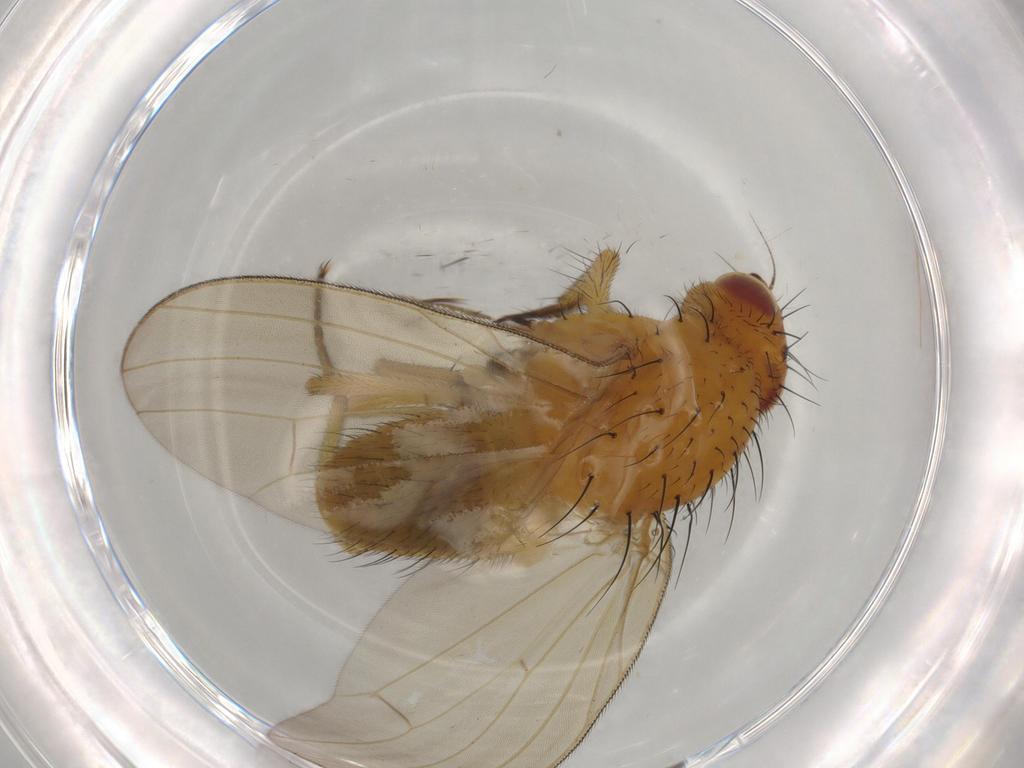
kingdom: Animalia
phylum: Arthropoda
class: Insecta
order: Diptera
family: Lauxaniidae
